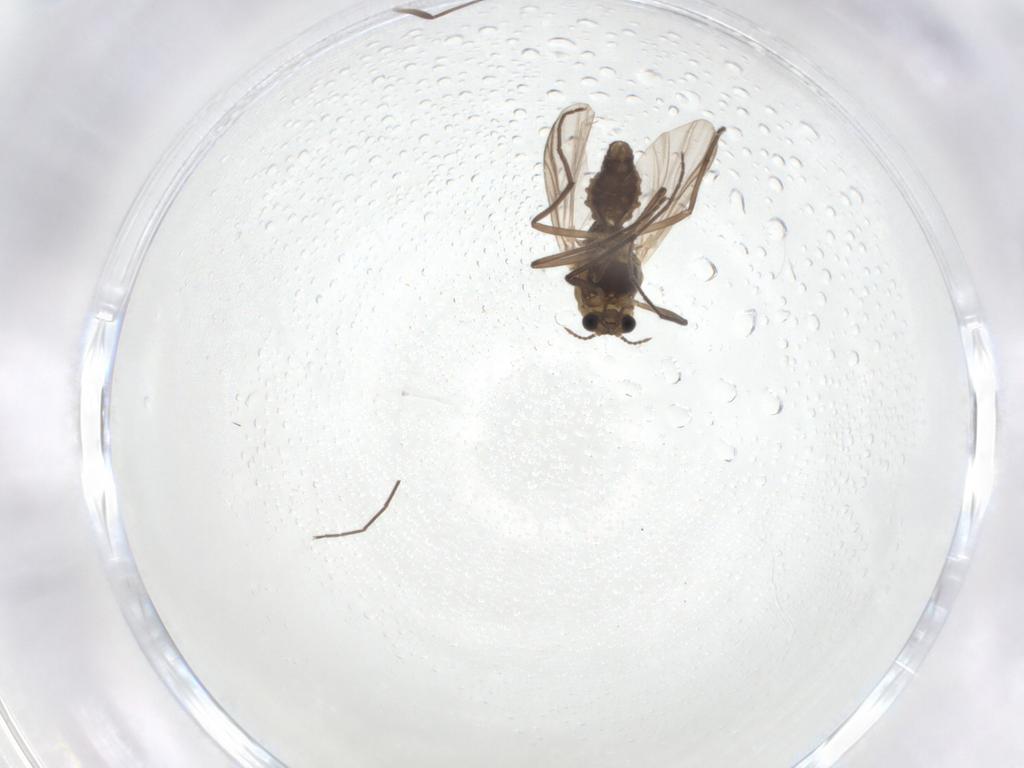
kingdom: Animalia
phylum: Arthropoda
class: Insecta
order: Diptera
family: Chironomidae
